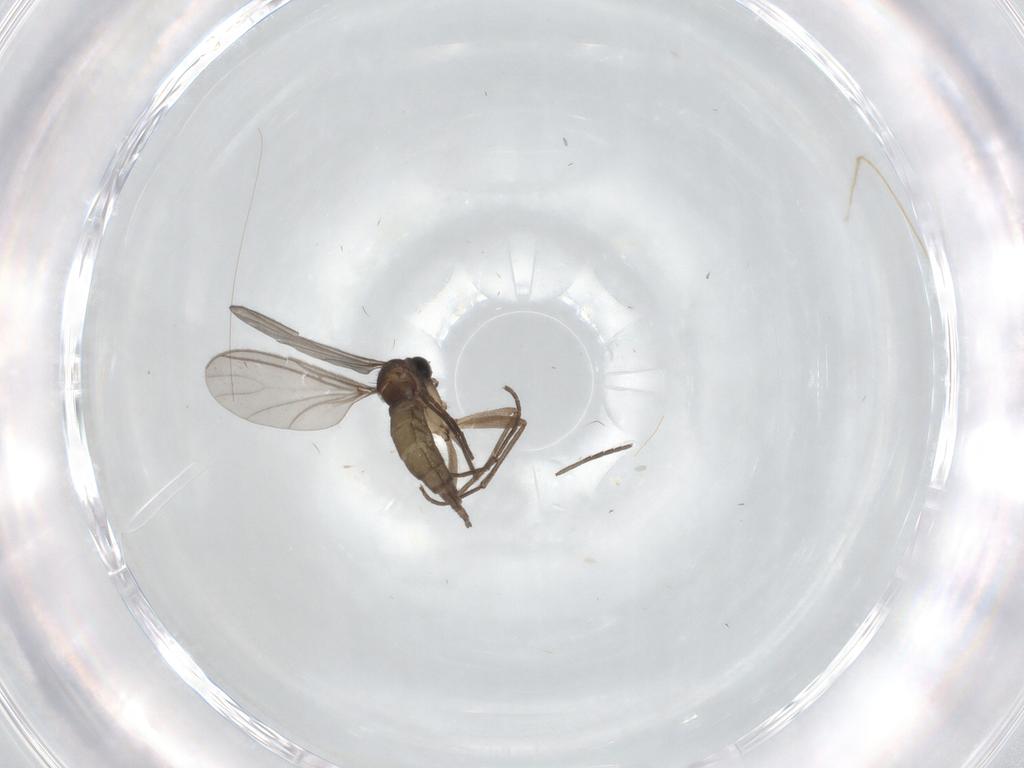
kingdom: Animalia
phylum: Arthropoda
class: Insecta
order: Diptera
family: Sciaridae
